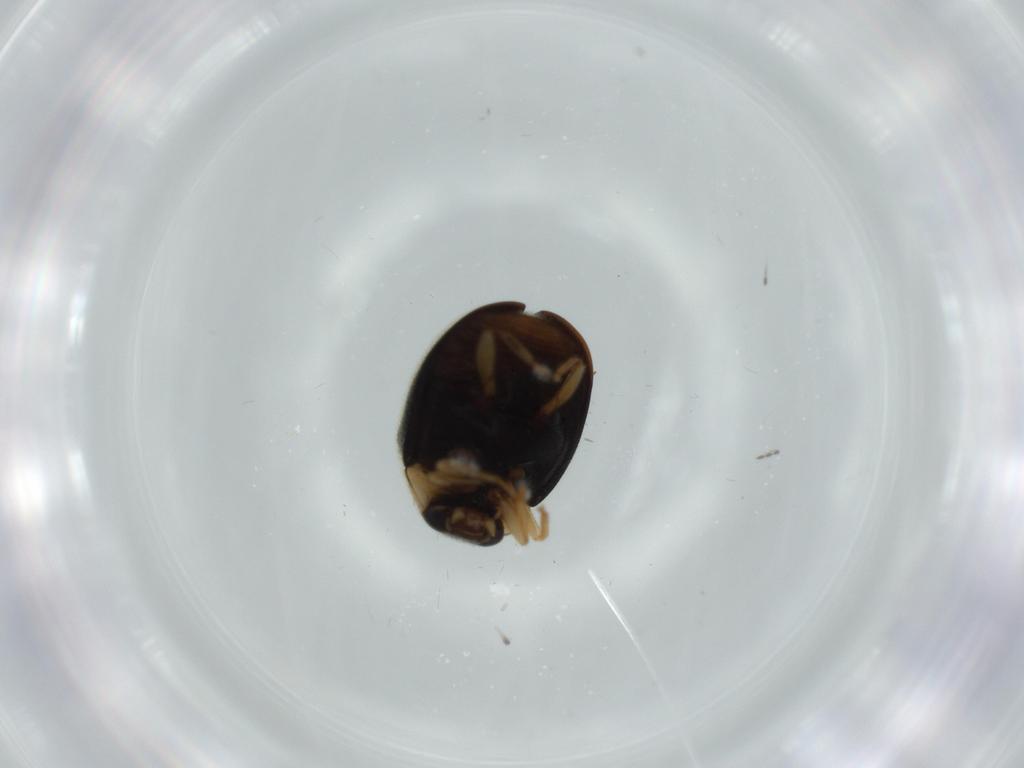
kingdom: Animalia
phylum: Arthropoda
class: Insecta
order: Coleoptera
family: Coccinellidae
